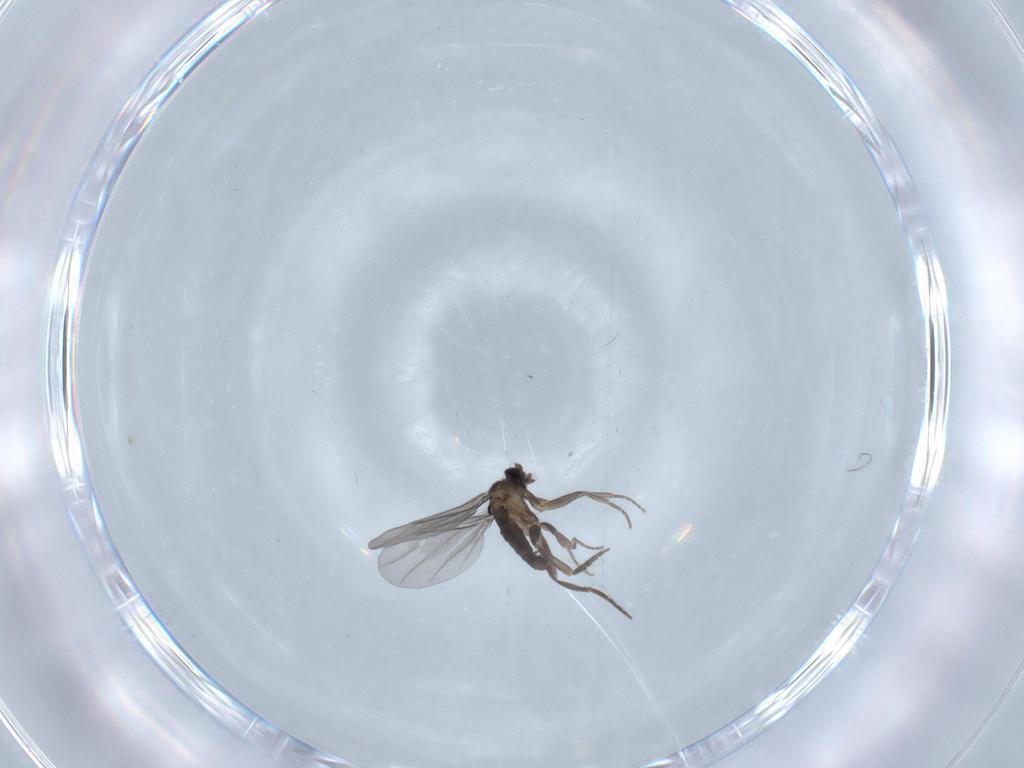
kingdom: Animalia
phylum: Arthropoda
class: Insecta
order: Diptera
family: Phoridae
